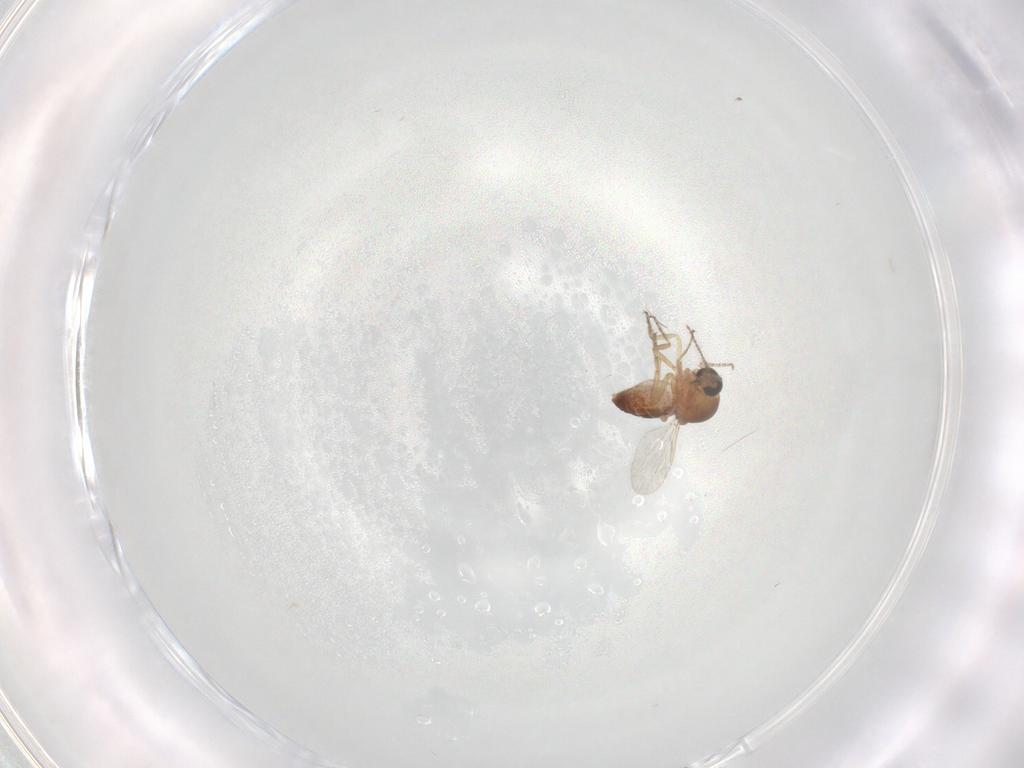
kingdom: Animalia
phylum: Arthropoda
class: Insecta
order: Diptera
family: Ceratopogonidae
